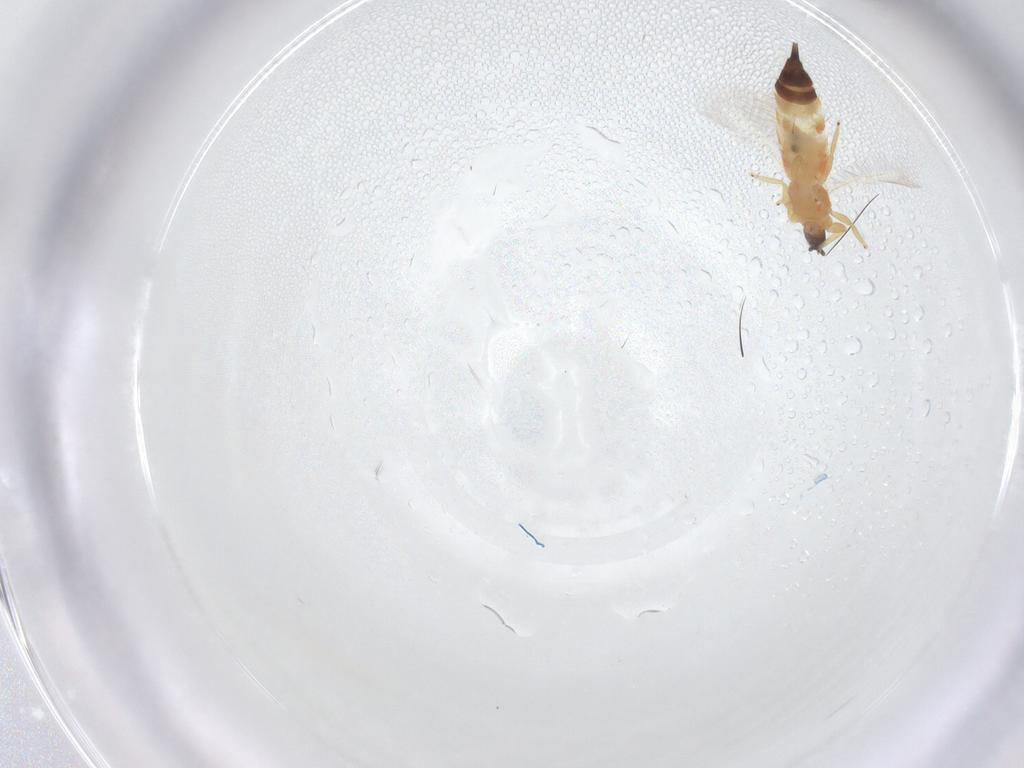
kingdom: Animalia
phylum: Arthropoda
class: Insecta
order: Thysanoptera
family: Phlaeothripidae
